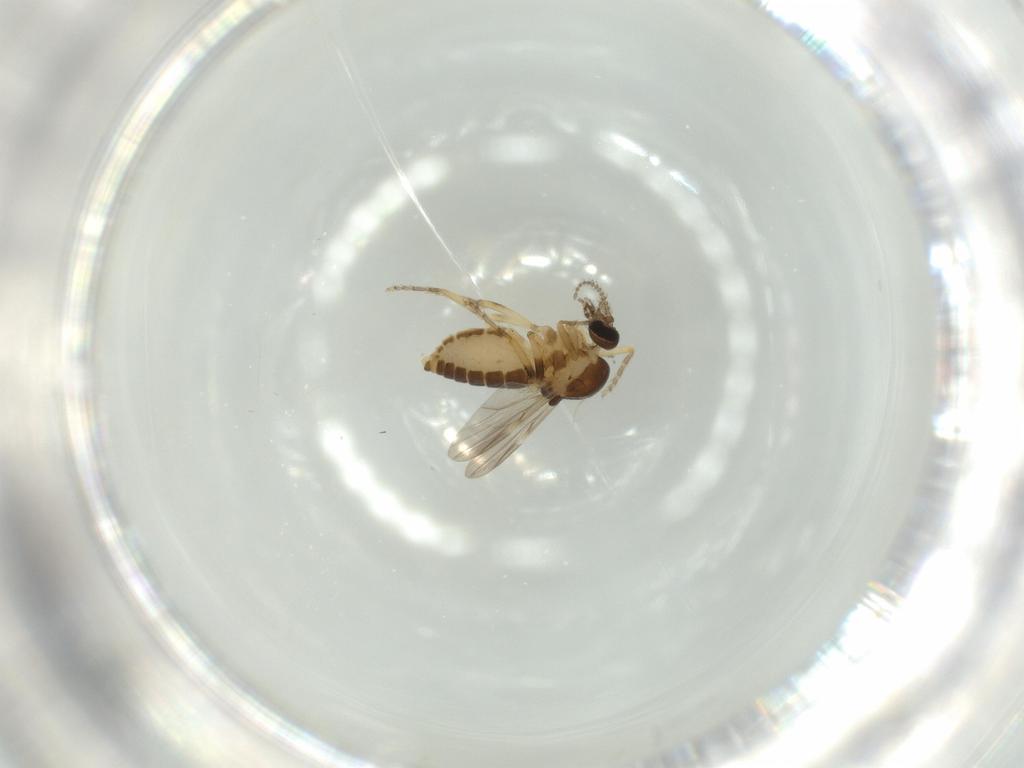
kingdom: Animalia
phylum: Arthropoda
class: Insecta
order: Diptera
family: Ceratopogonidae
